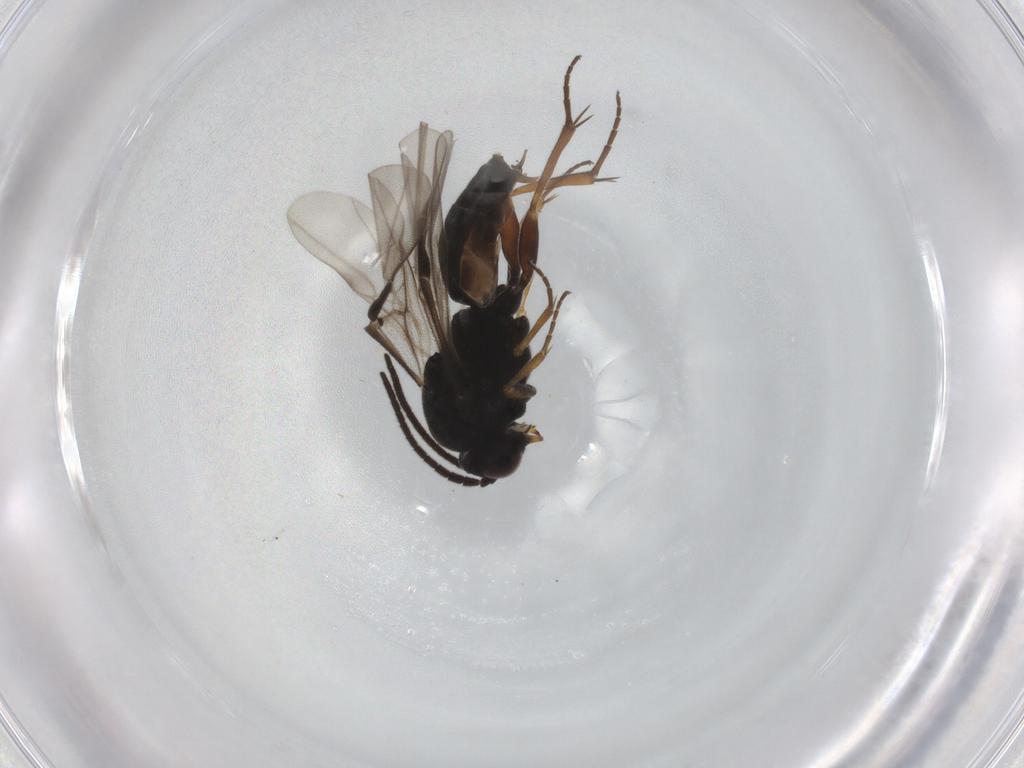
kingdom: Animalia
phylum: Arthropoda
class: Insecta
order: Hymenoptera
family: Braconidae
